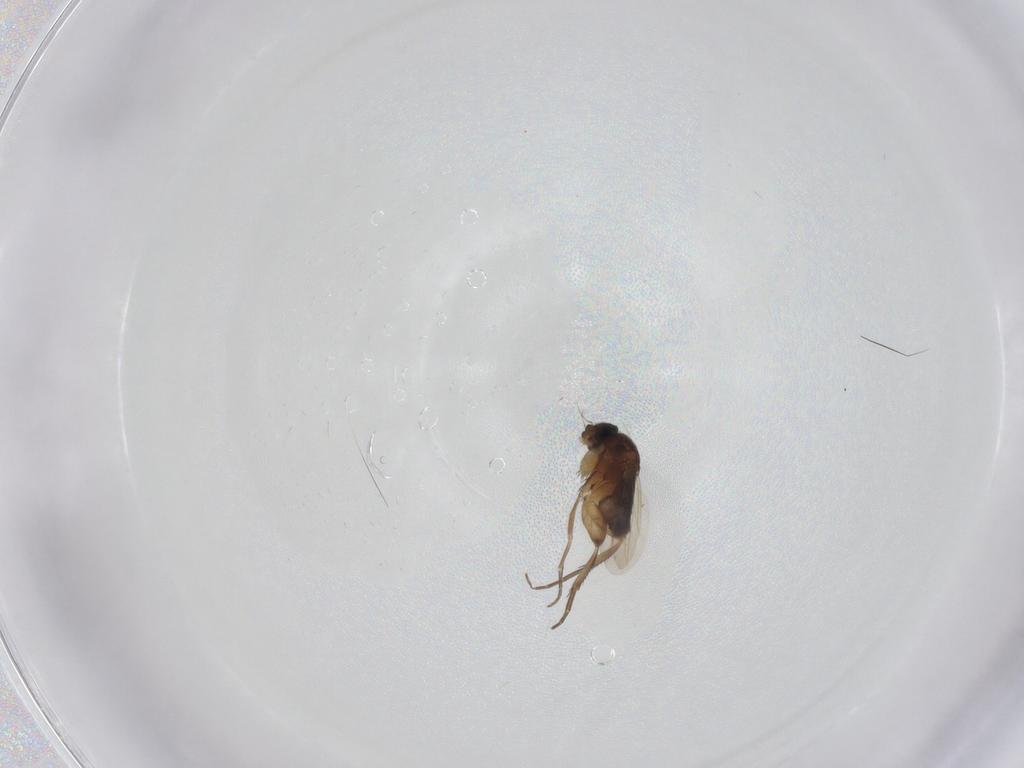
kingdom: Animalia
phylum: Arthropoda
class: Insecta
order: Diptera
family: Phoridae
